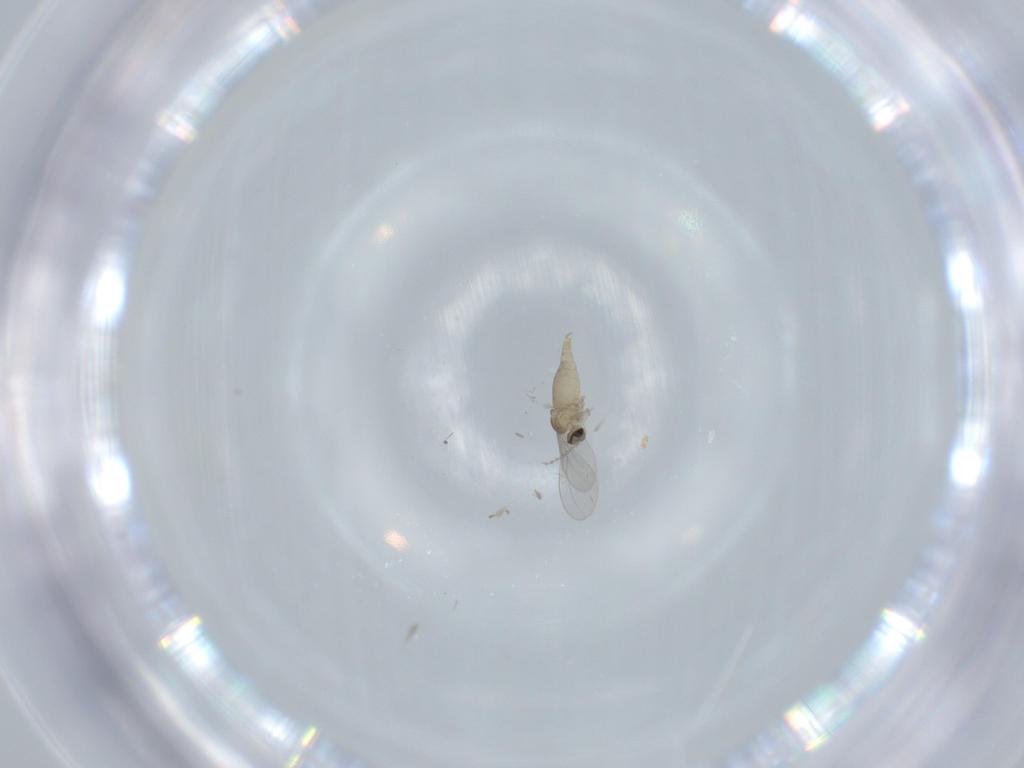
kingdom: Animalia
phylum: Arthropoda
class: Insecta
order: Diptera
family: Cecidomyiidae
